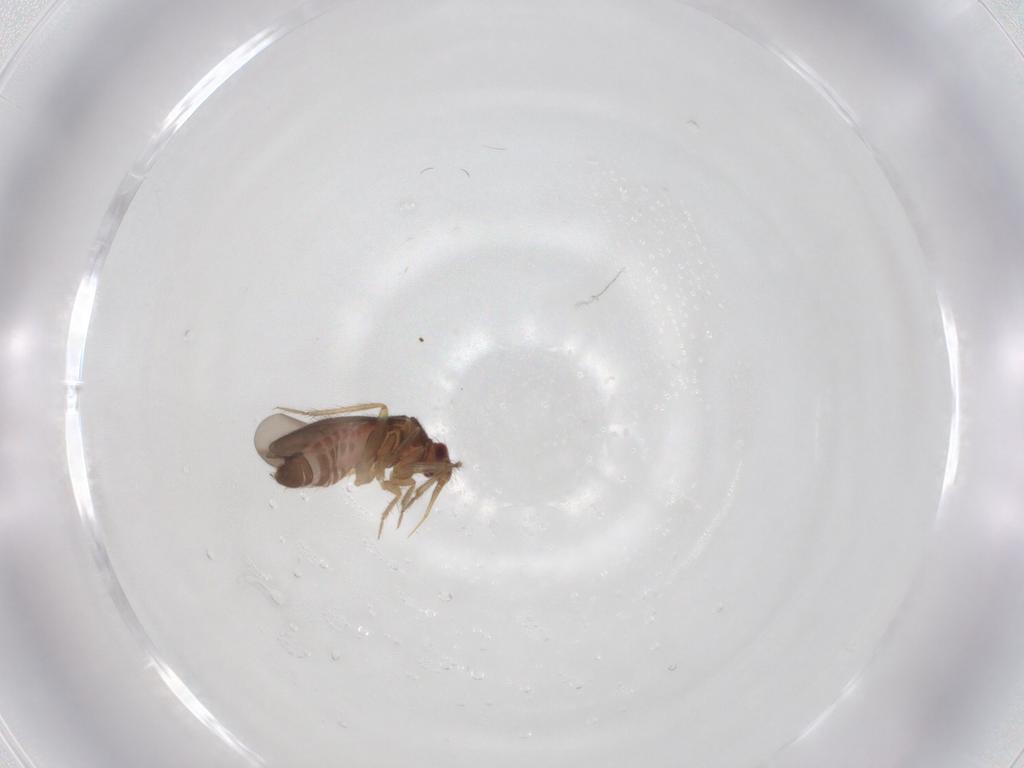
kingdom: Animalia
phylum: Arthropoda
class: Insecta
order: Hemiptera
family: Ceratocombidae
